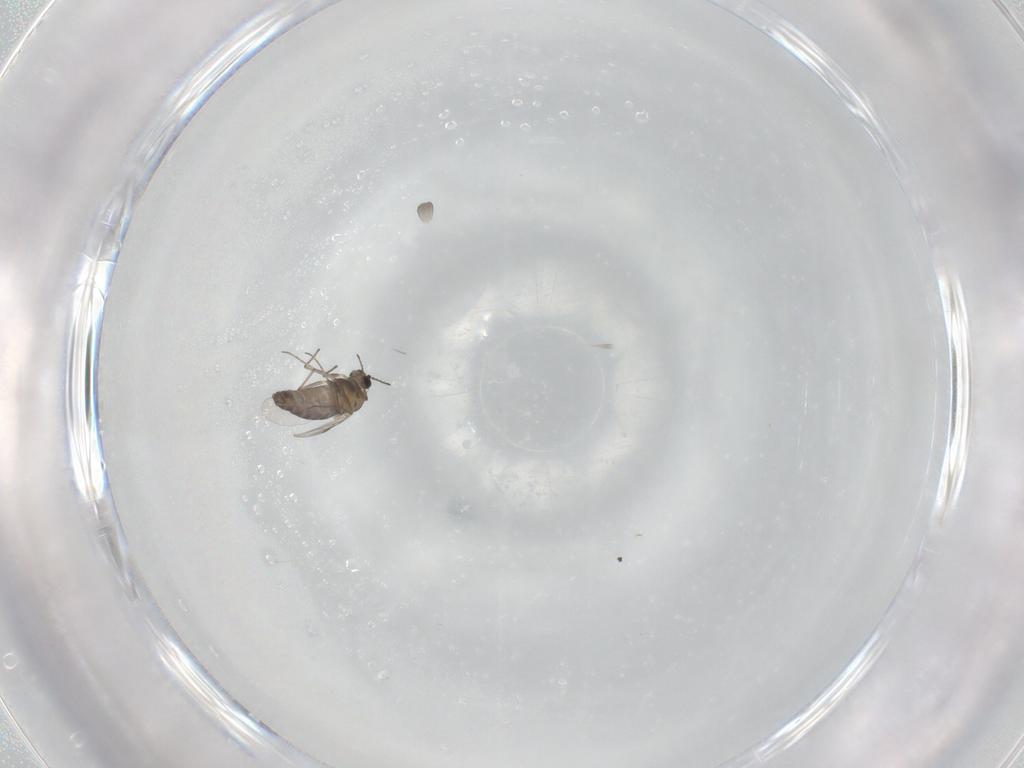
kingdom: Animalia
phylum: Arthropoda
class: Insecta
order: Diptera
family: Chironomidae
